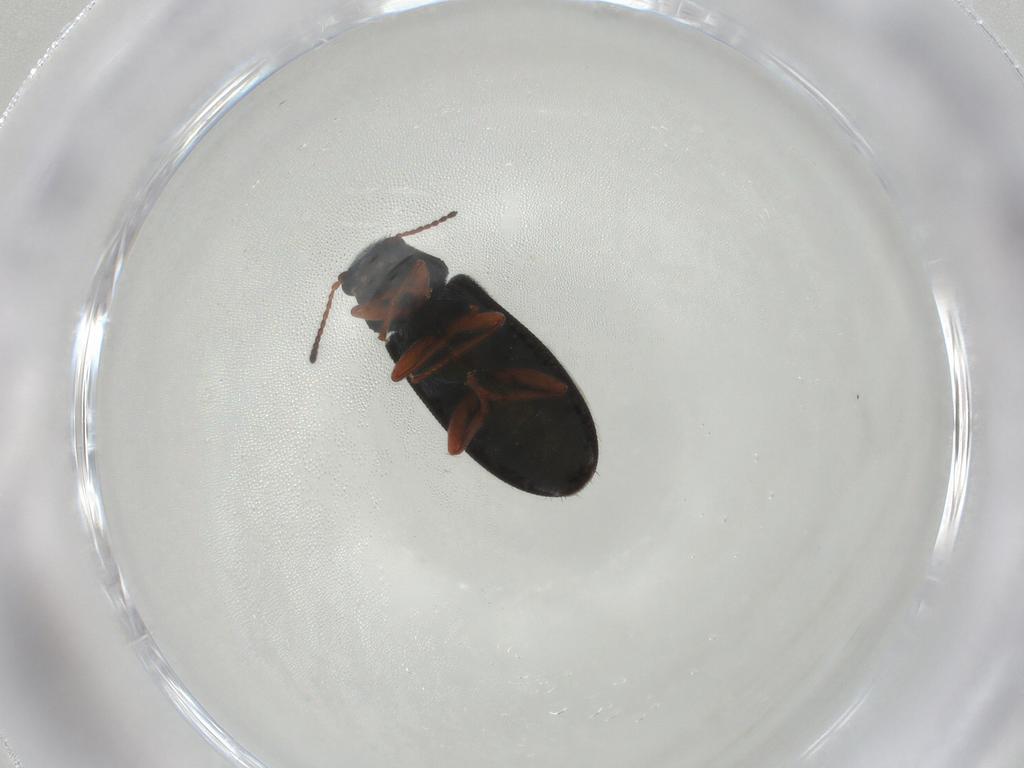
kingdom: Animalia
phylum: Arthropoda
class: Insecta
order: Coleoptera
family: Melyridae
